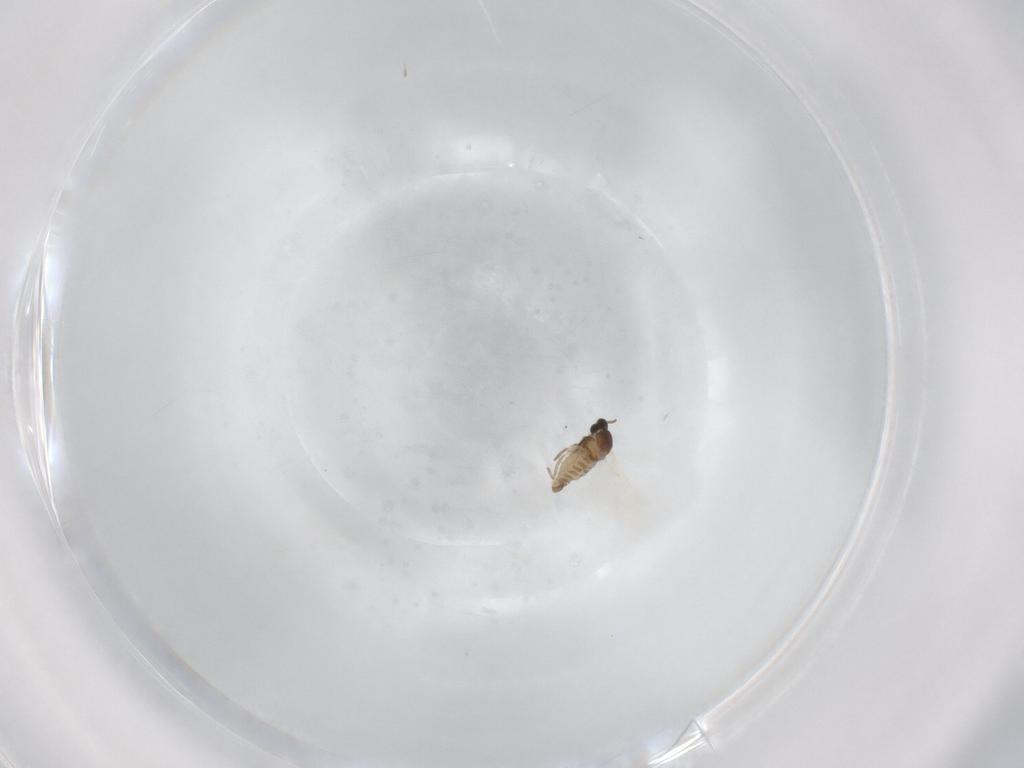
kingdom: Animalia
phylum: Arthropoda
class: Insecta
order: Diptera
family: Cecidomyiidae
